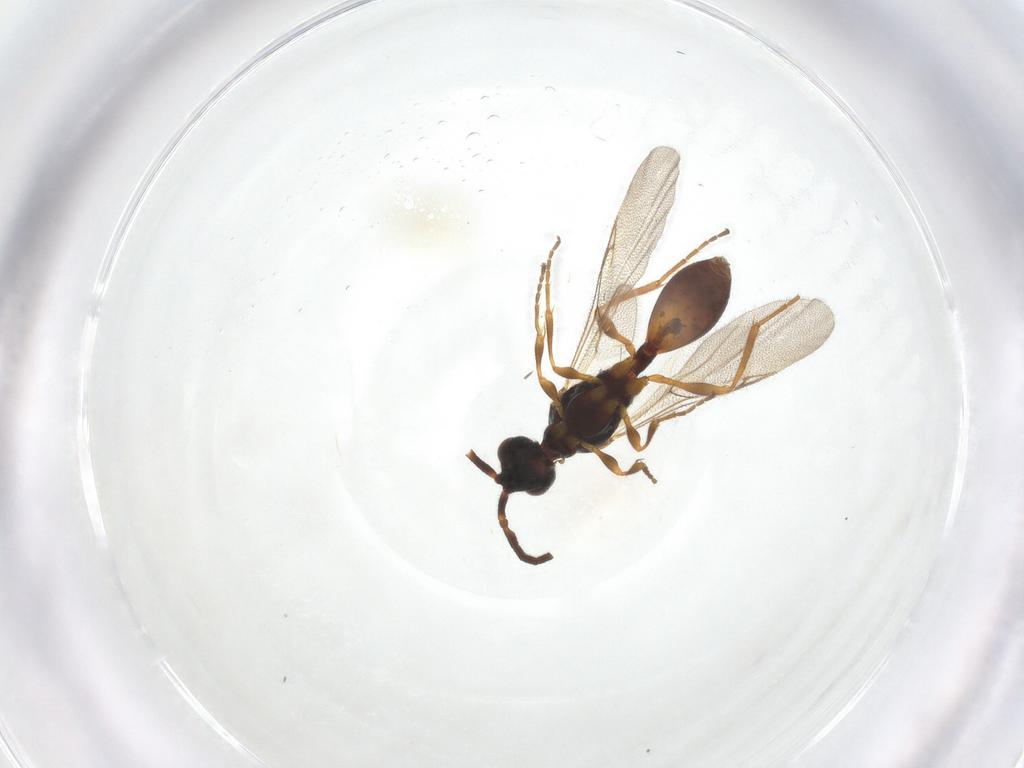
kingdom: Animalia
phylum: Arthropoda
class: Insecta
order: Hymenoptera
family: Diapriidae
